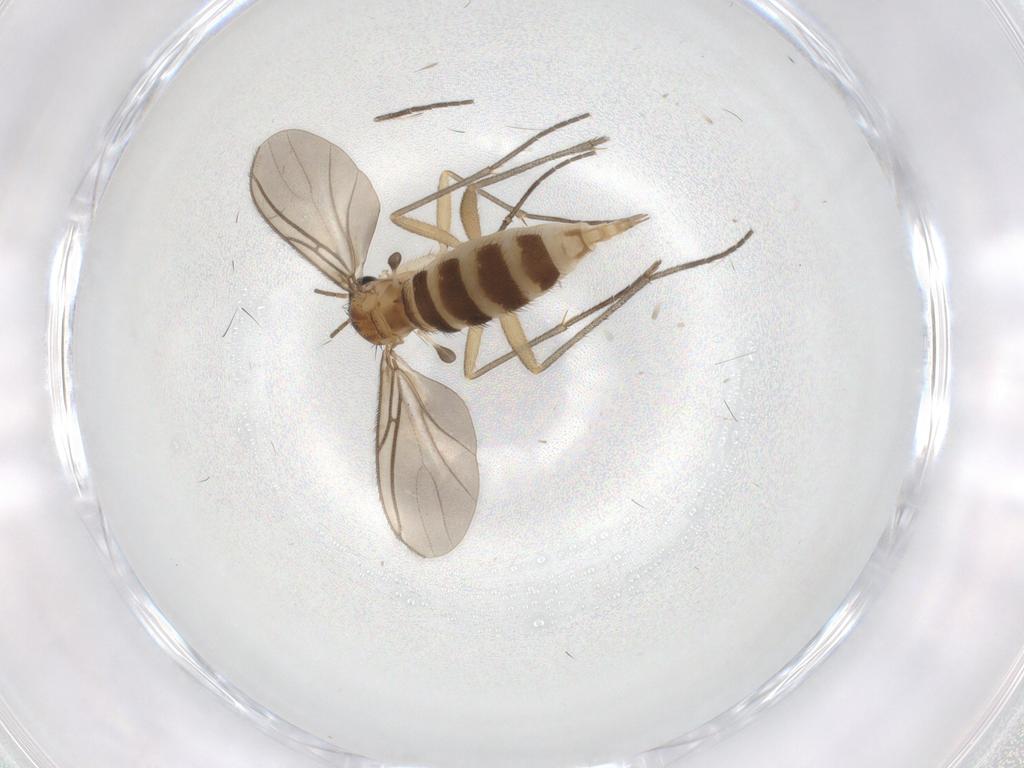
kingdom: Animalia
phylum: Arthropoda
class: Insecta
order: Diptera
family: Sciaridae
